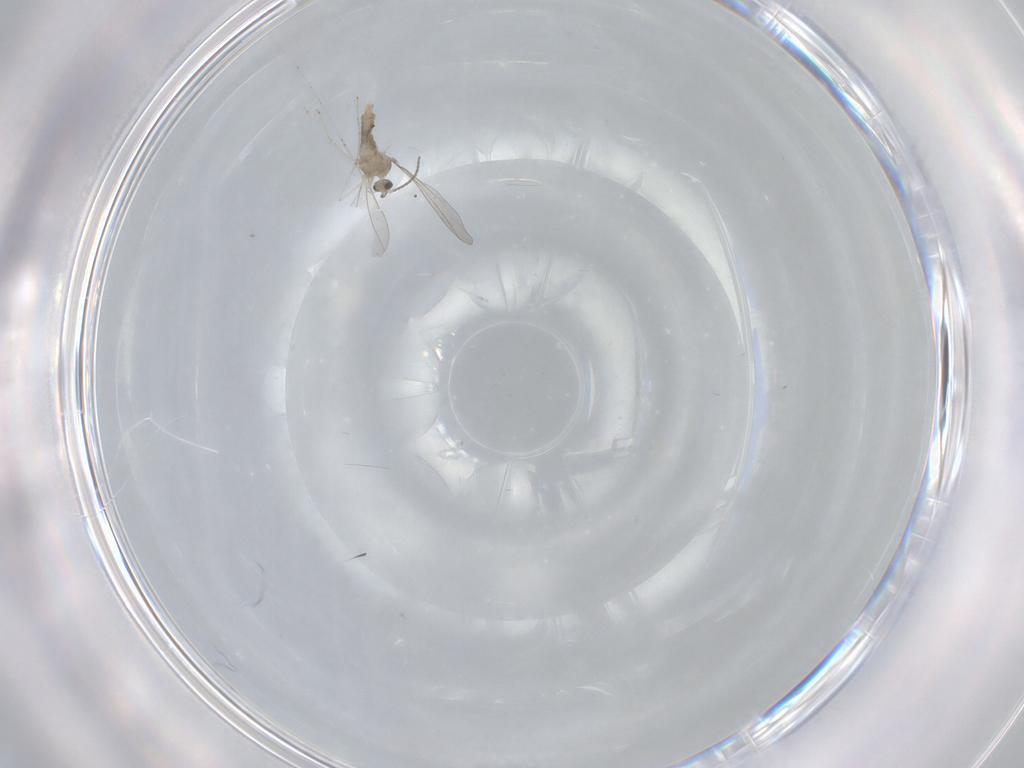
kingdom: Animalia
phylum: Arthropoda
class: Insecta
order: Diptera
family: Cecidomyiidae
